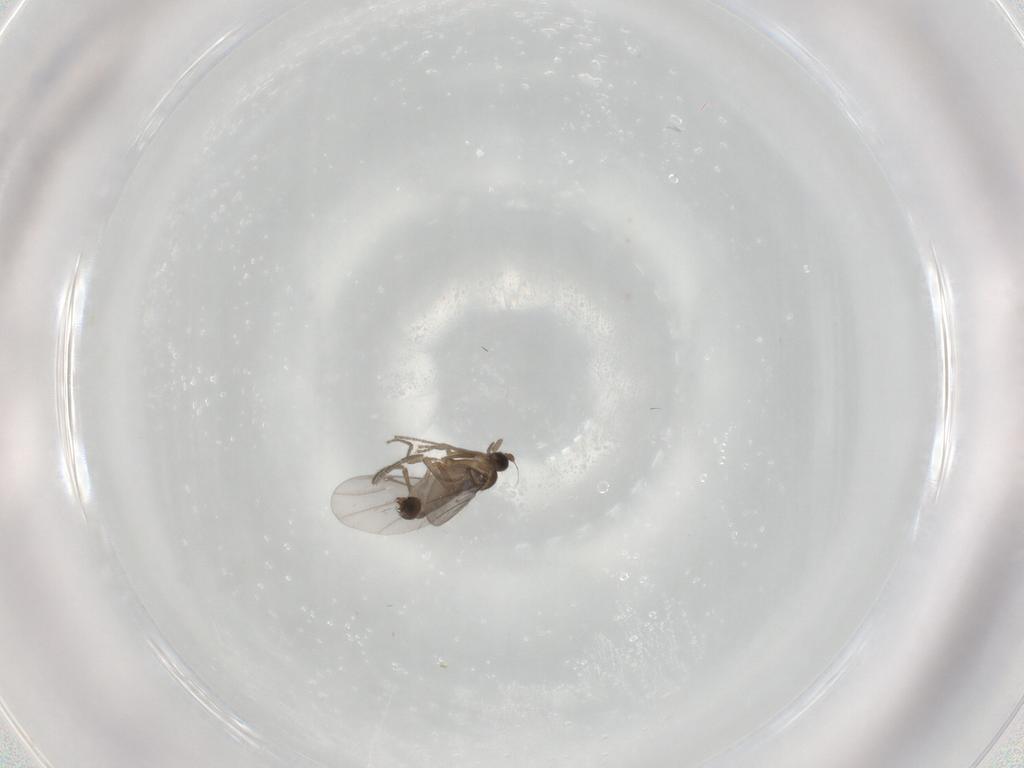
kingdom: Animalia
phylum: Arthropoda
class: Insecta
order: Diptera
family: Phoridae
